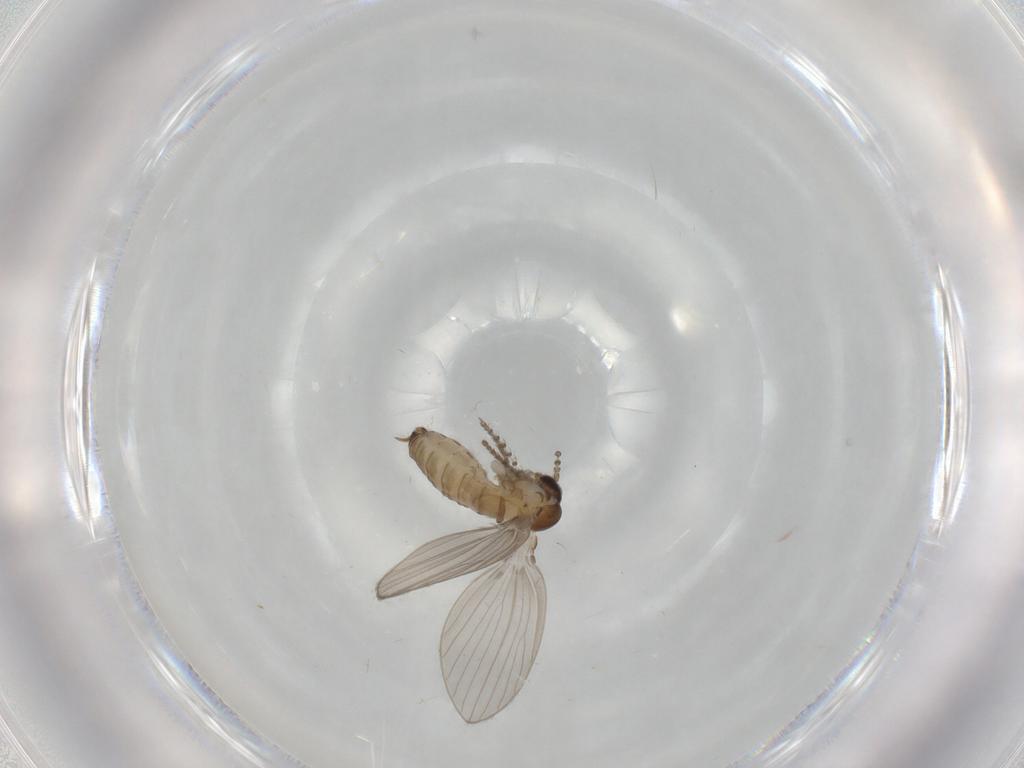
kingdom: Animalia
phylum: Arthropoda
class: Insecta
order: Diptera
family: Psychodidae
